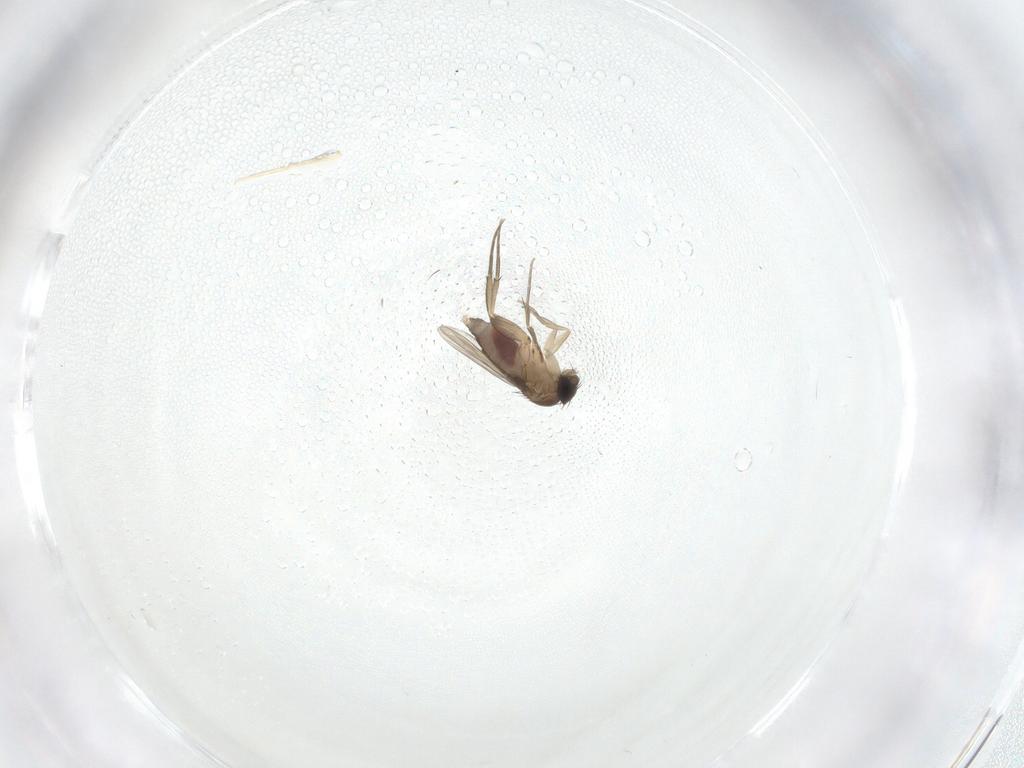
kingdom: Animalia
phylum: Arthropoda
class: Insecta
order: Diptera
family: Phoridae
